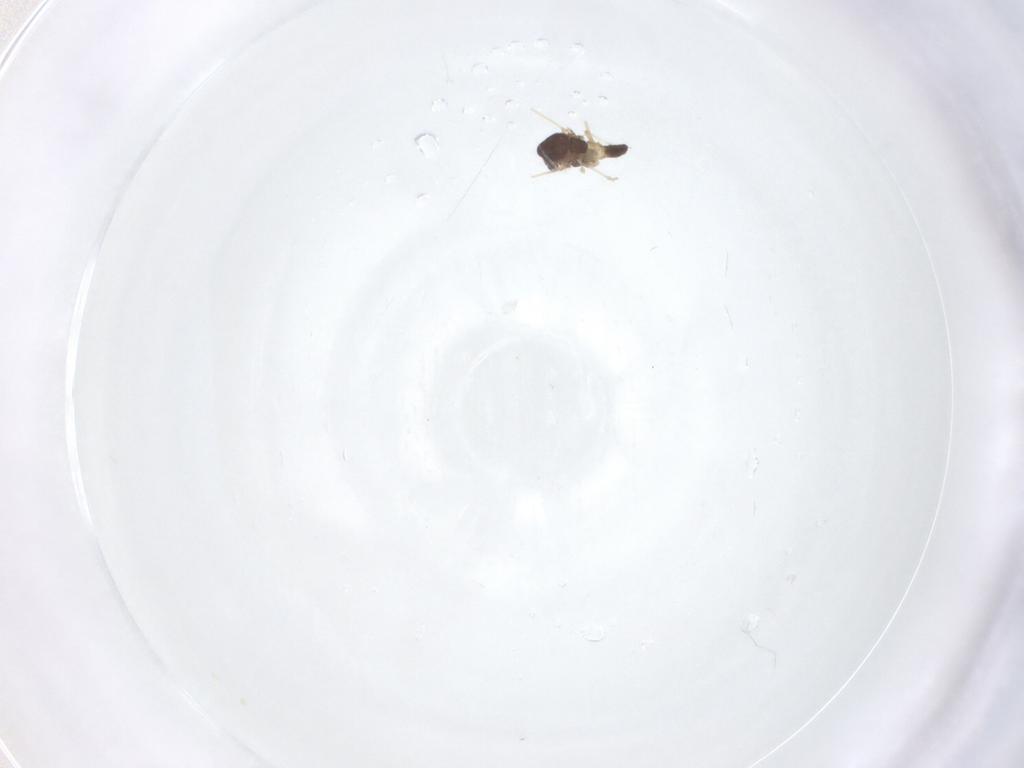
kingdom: Animalia
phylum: Arthropoda
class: Insecta
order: Diptera
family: Chironomidae
